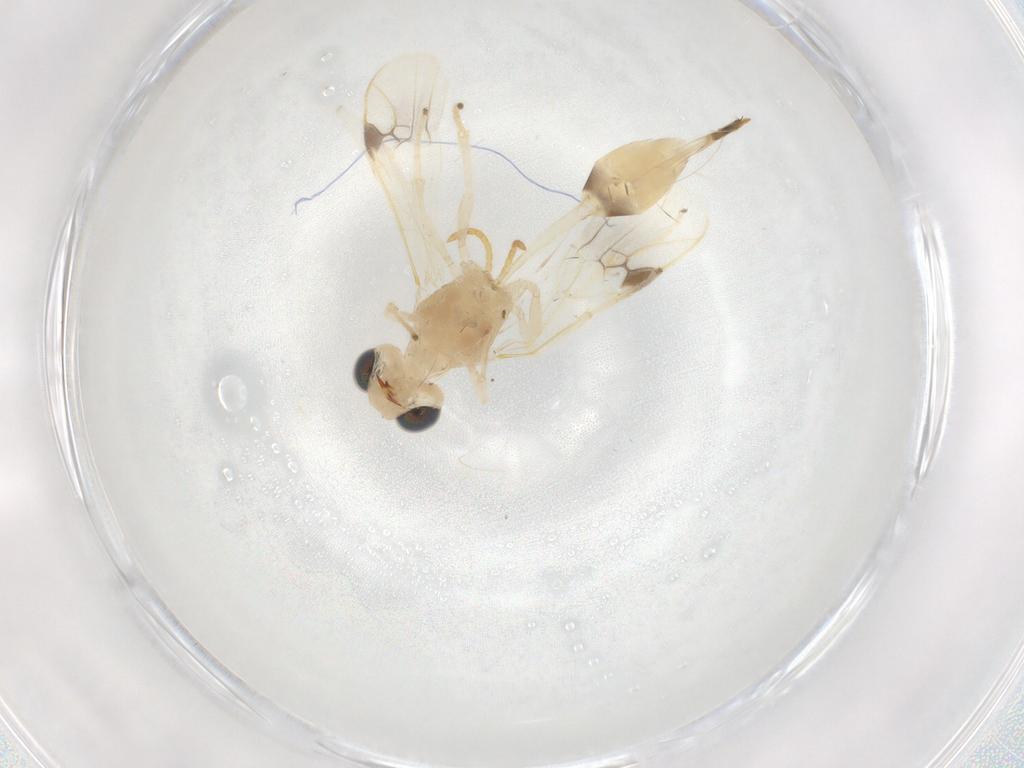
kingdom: Animalia
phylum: Arthropoda
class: Insecta
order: Hymenoptera
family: Braconidae
